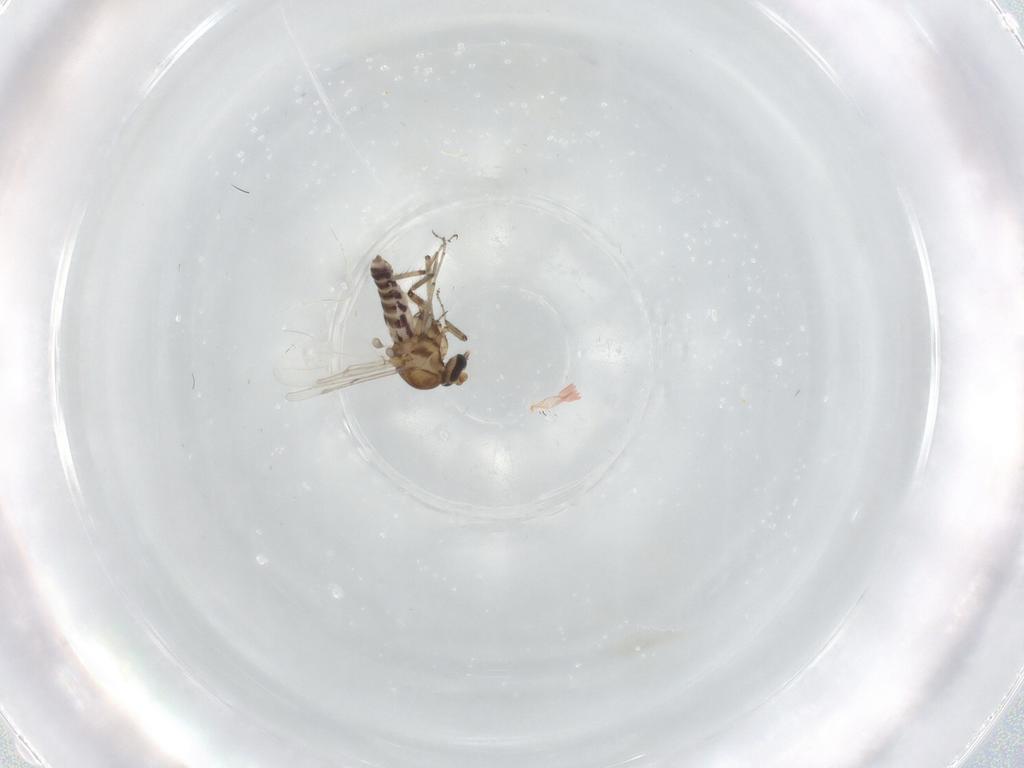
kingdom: Animalia
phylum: Arthropoda
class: Insecta
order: Diptera
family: Ceratopogonidae
